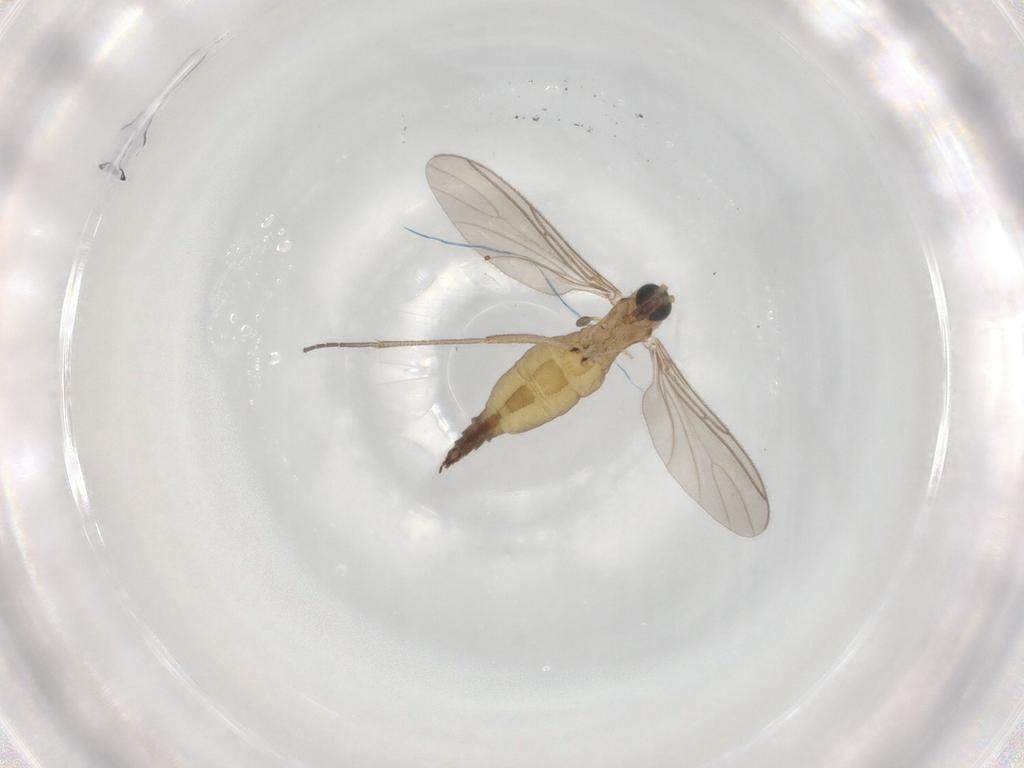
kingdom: Animalia
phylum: Arthropoda
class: Insecta
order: Diptera
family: Sciaridae
